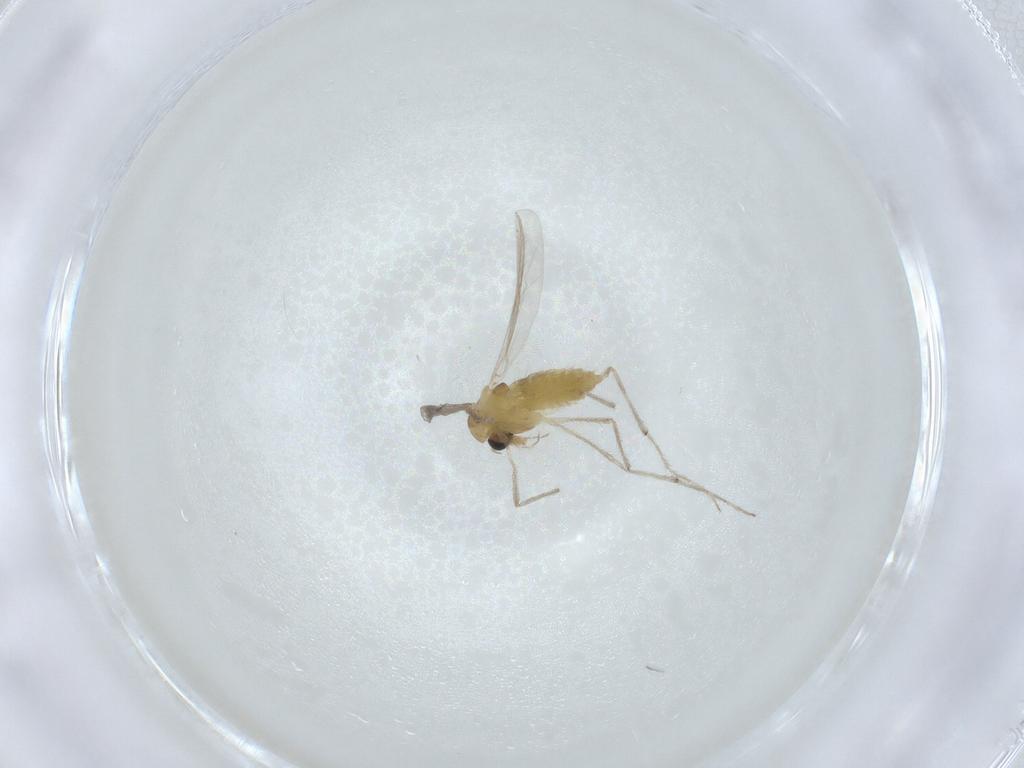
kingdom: Animalia
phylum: Arthropoda
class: Insecta
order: Diptera
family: Chironomidae
